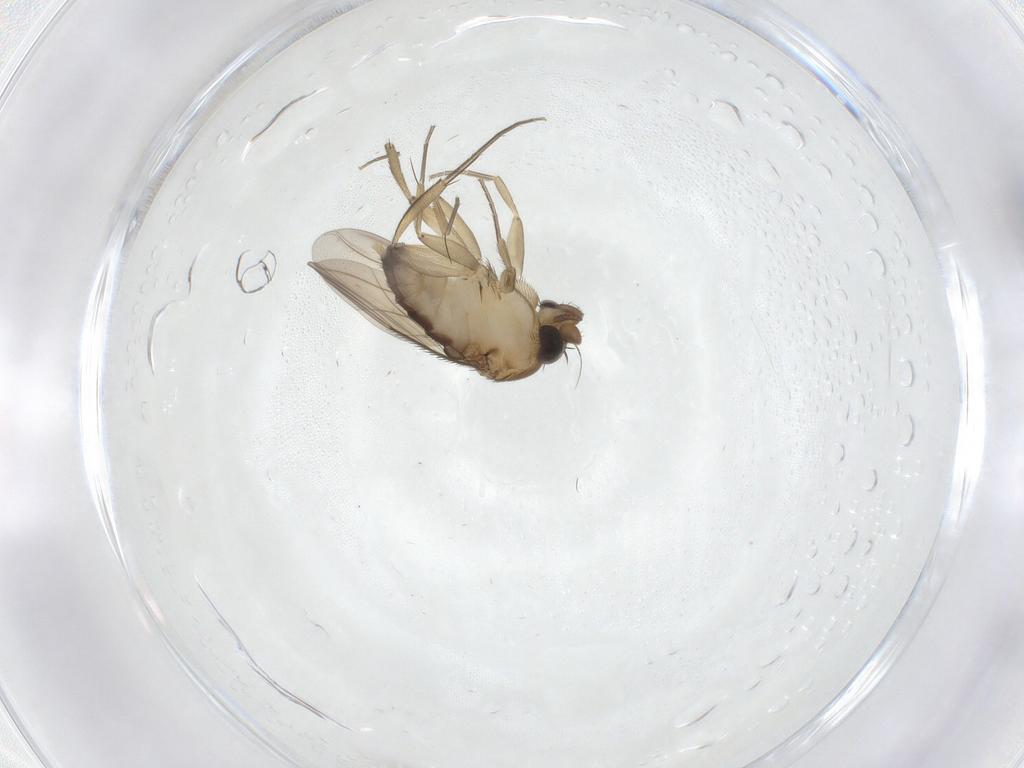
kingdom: Animalia
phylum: Arthropoda
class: Insecta
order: Diptera
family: Phoridae
